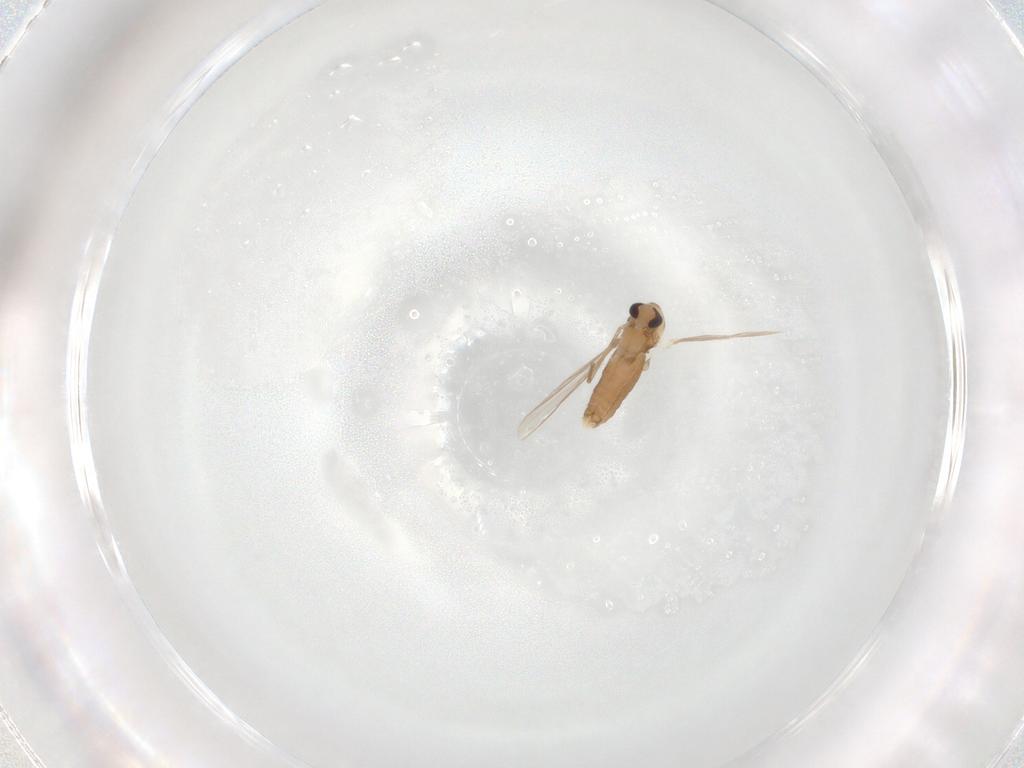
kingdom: Animalia
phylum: Arthropoda
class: Insecta
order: Diptera
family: Chironomidae
